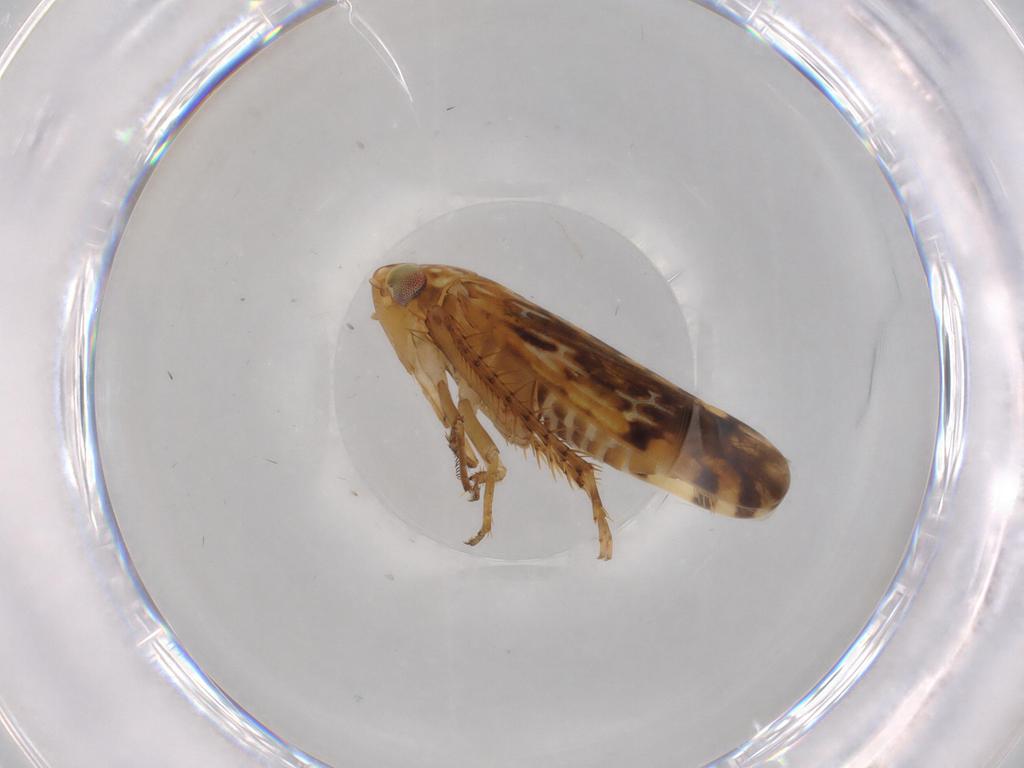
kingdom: Animalia
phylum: Arthropoda
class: Insecta
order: Hemiptera
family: Cicadellidae
